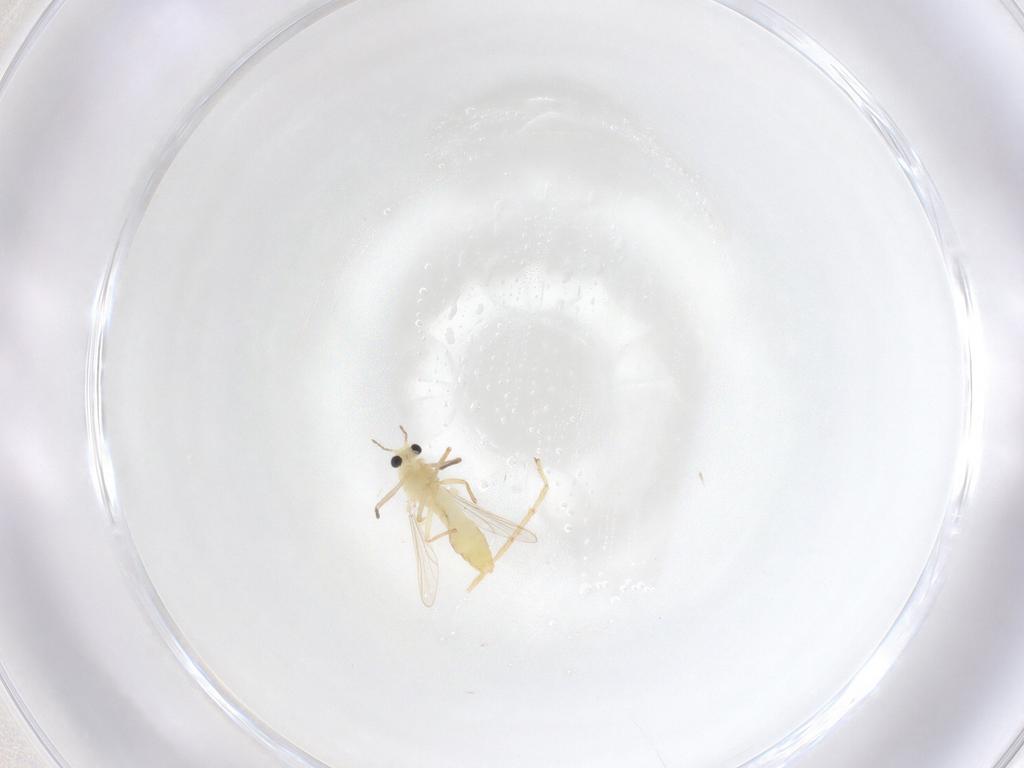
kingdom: Animalia
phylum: Arthropoda
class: Insecta
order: Diptera
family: Chironomidae
